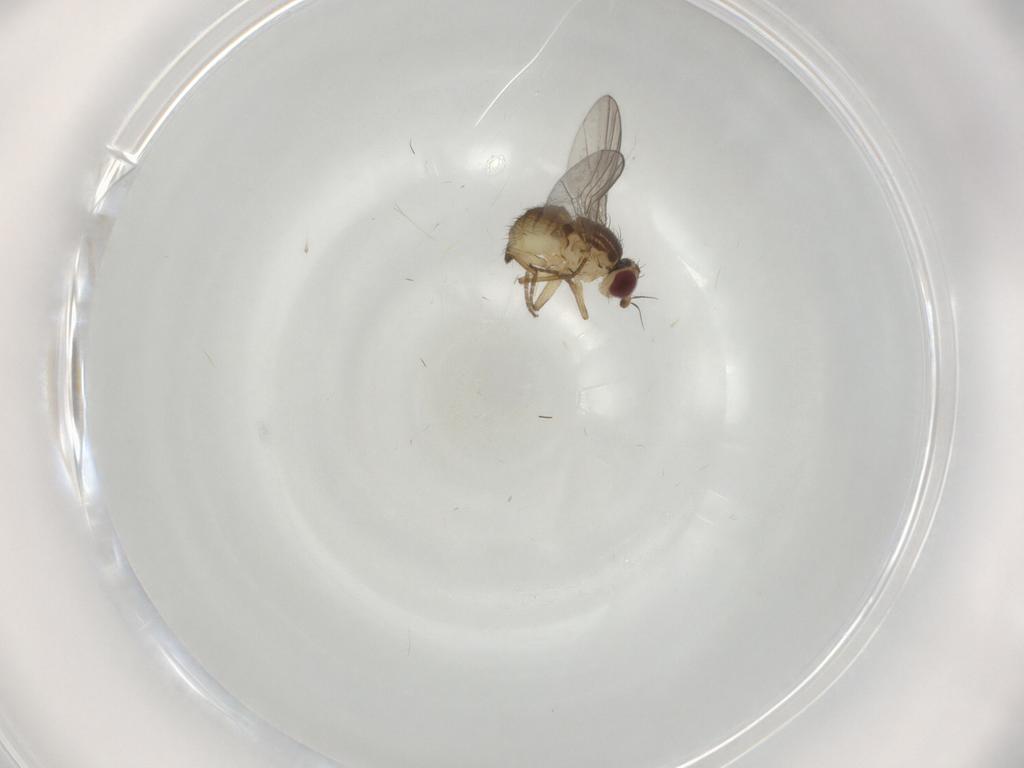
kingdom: Animalia
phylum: Arthropoda
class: Insecta
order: Diptera
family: Agromyzidae
